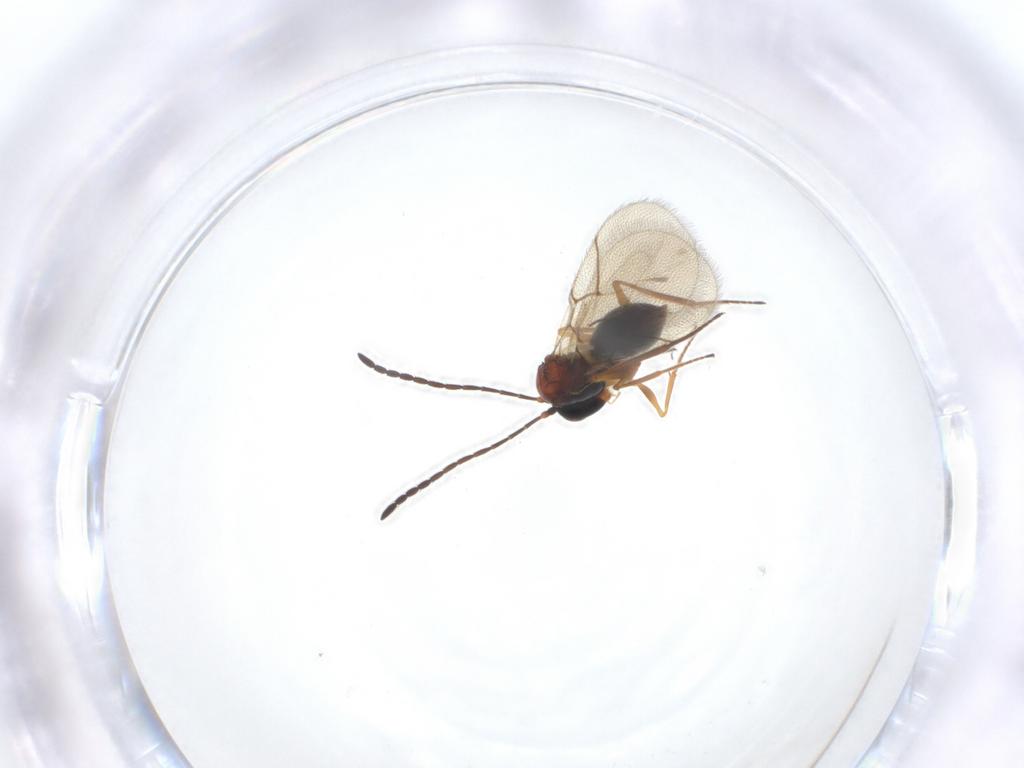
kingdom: Animalia
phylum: Arthropoda
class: Insecta
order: Hymenoptera
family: Figitidae
